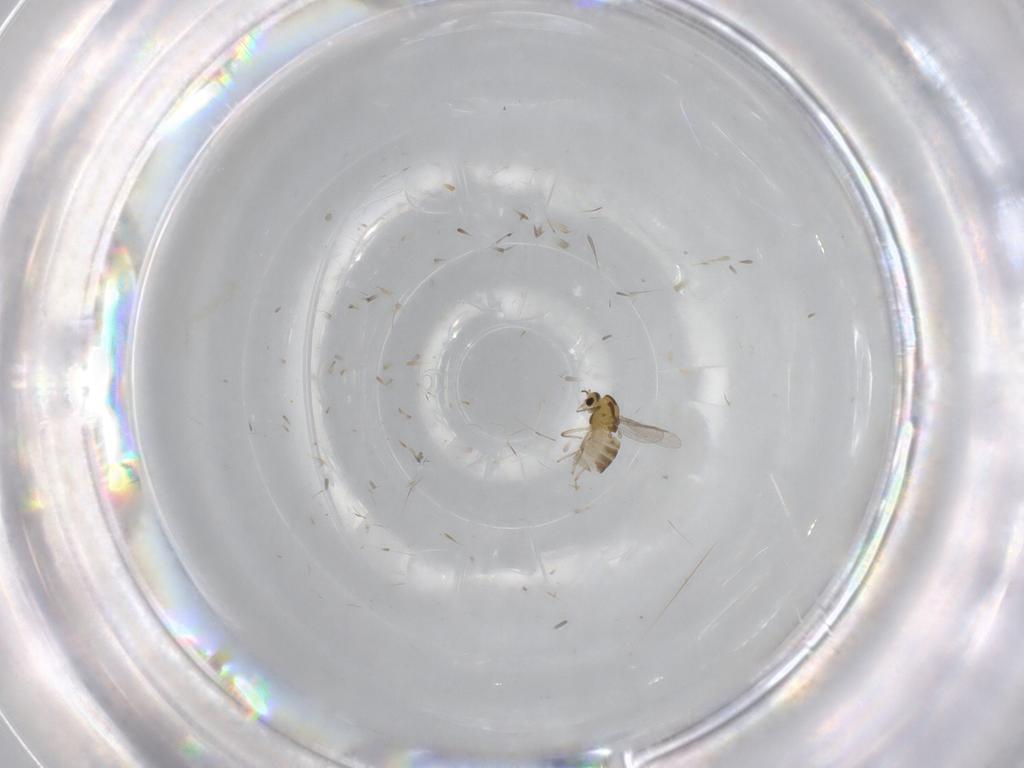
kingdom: Animalia
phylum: Arthropoda
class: Insecta
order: Diptera
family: Chironomidae
